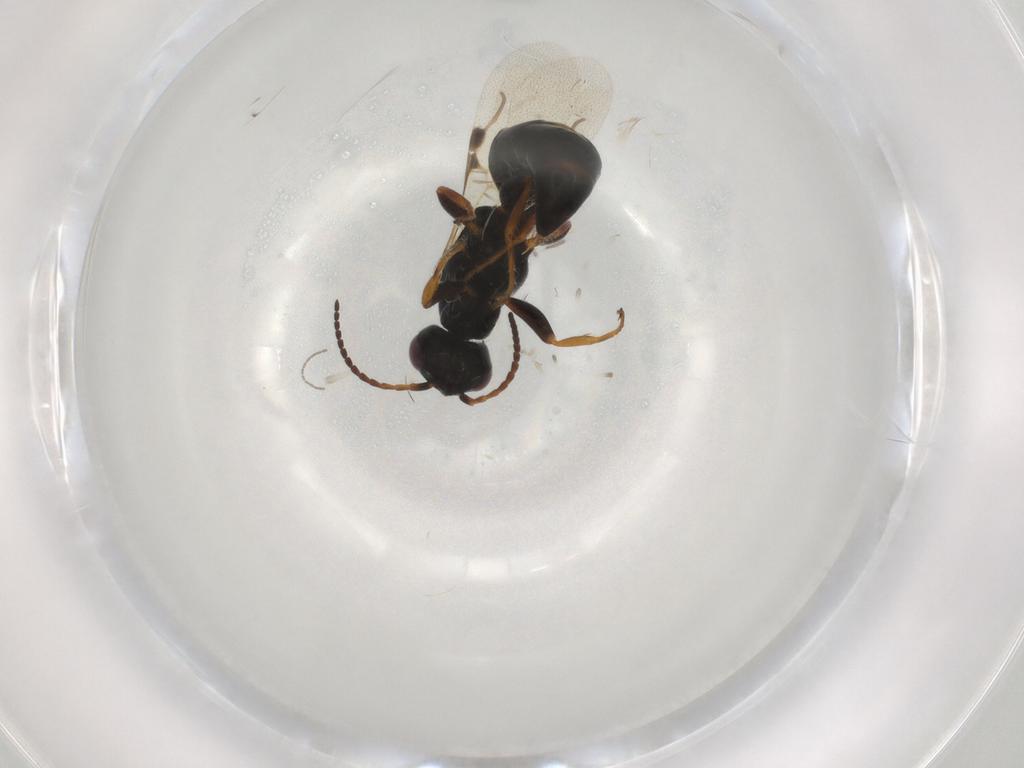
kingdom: Animalia
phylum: Arthropoda
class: Insecta
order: Hymenoptera
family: Bethylidae
